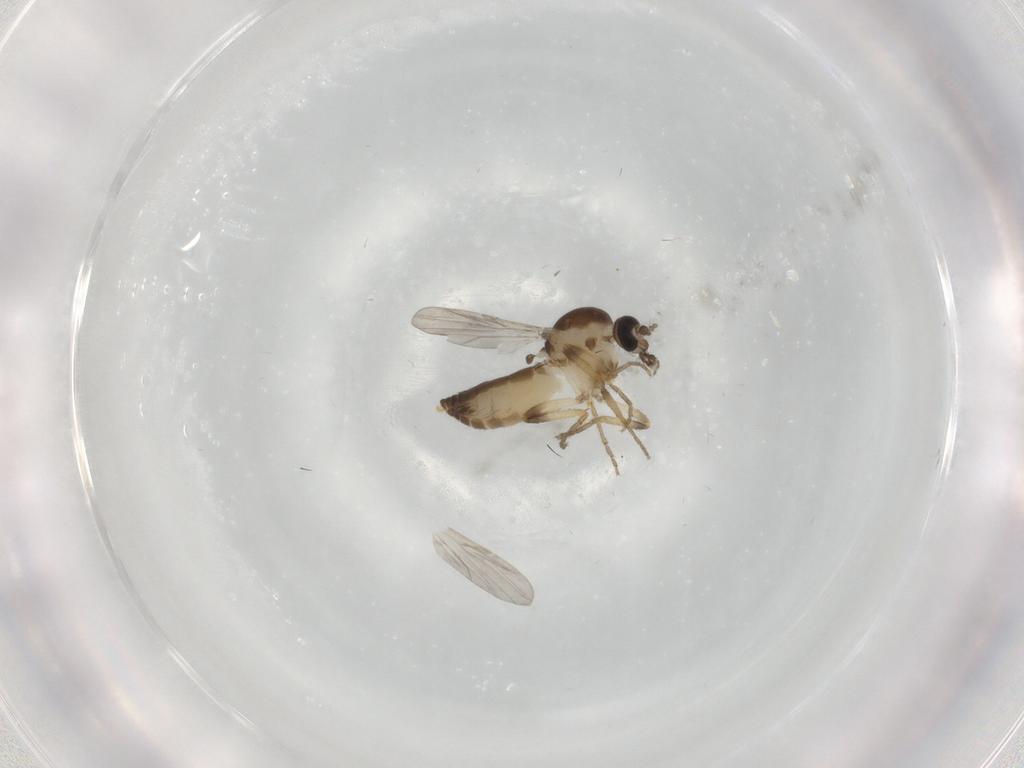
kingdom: Animalia
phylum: Arthropoda
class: Insecta
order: Diptera
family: Ceratopogonidae
